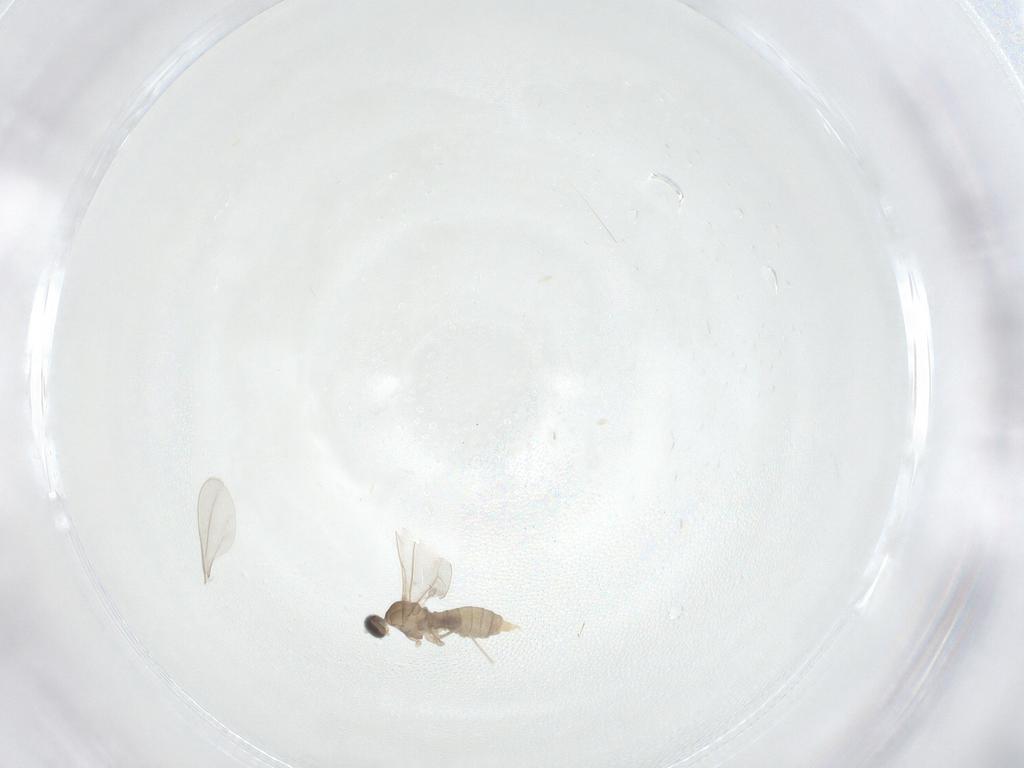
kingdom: Animalia
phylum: Arthropoda
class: Insecta
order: Diptera
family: Cecidomyiidae
